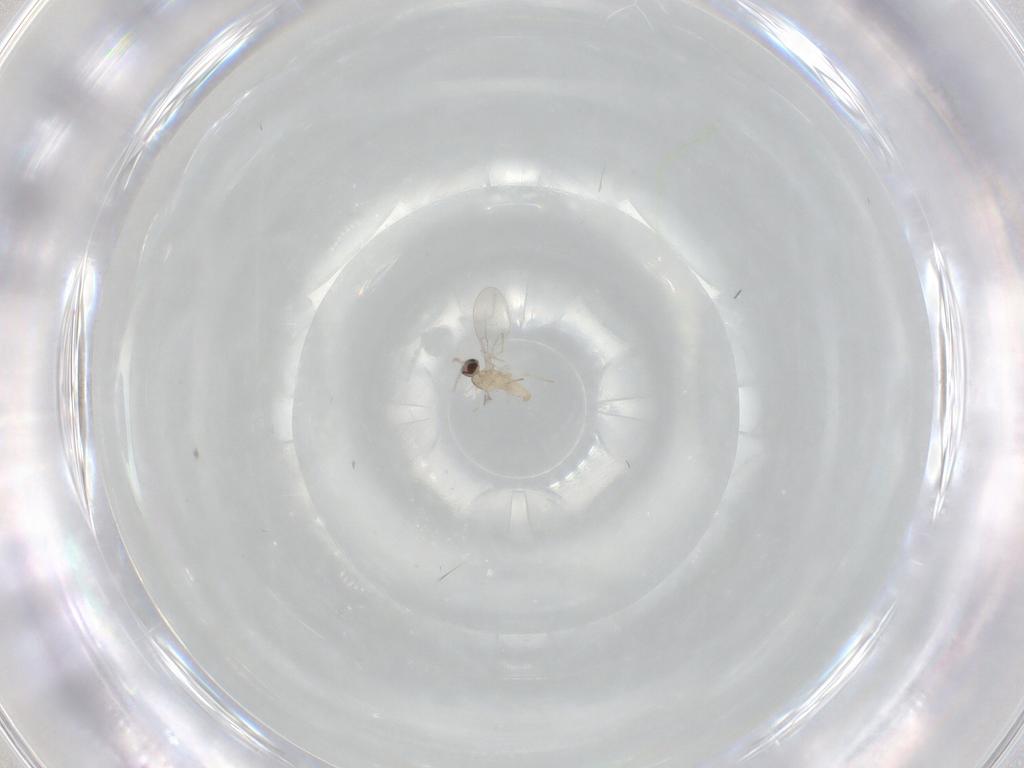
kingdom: Animalia
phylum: Arthropoda
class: Insecta
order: Diptera
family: Cecidomyiidae
